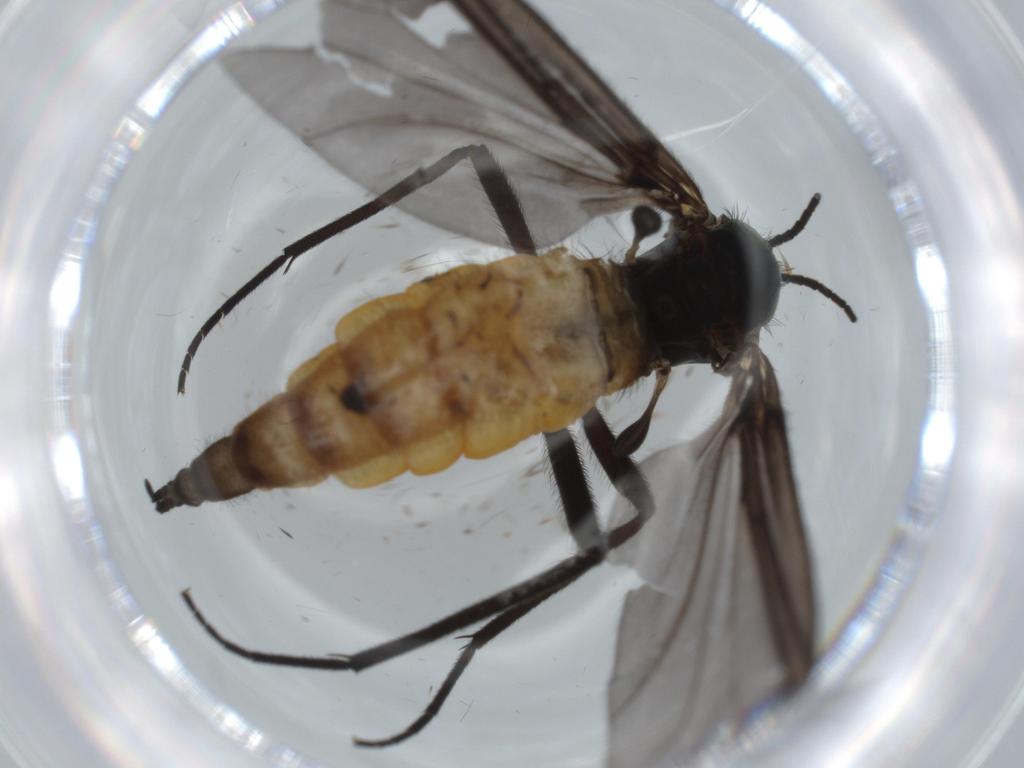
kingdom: Animalia
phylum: Arthropoda
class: Insecta
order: Diptera
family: Sciaridae
